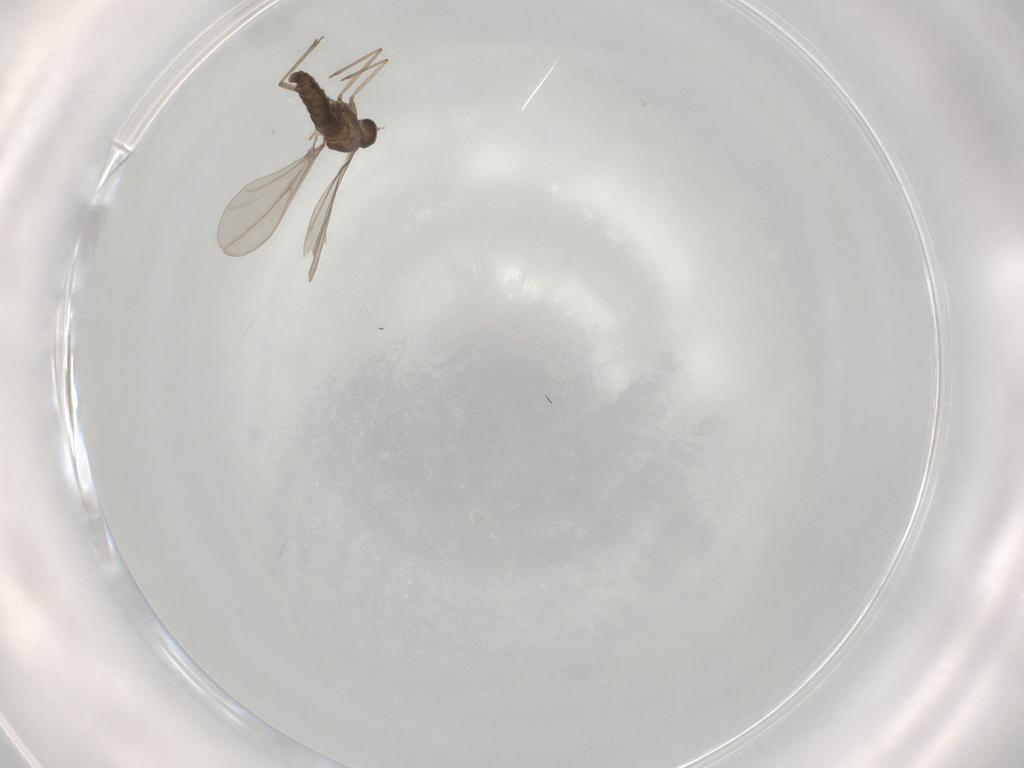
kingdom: Animalia
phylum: Arthropoda
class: Insecta
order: Diptera
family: Cecidomyiidae
